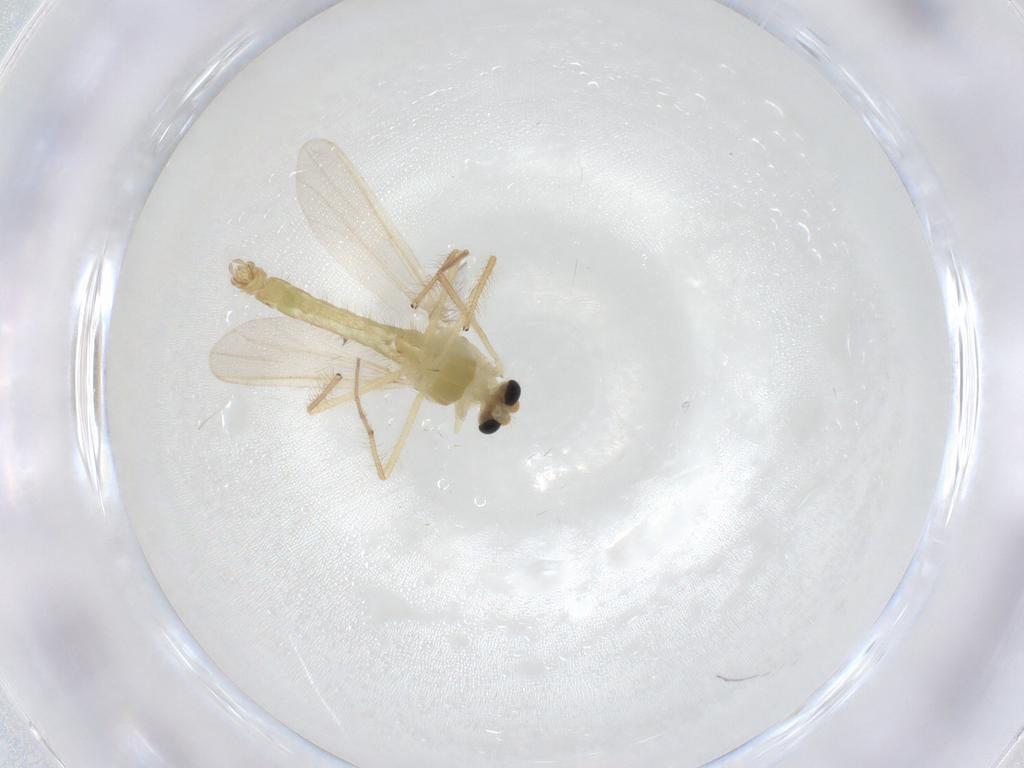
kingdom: Animalia
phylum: Arthropoda
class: Insecta
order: Diptera
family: Chironomidae
